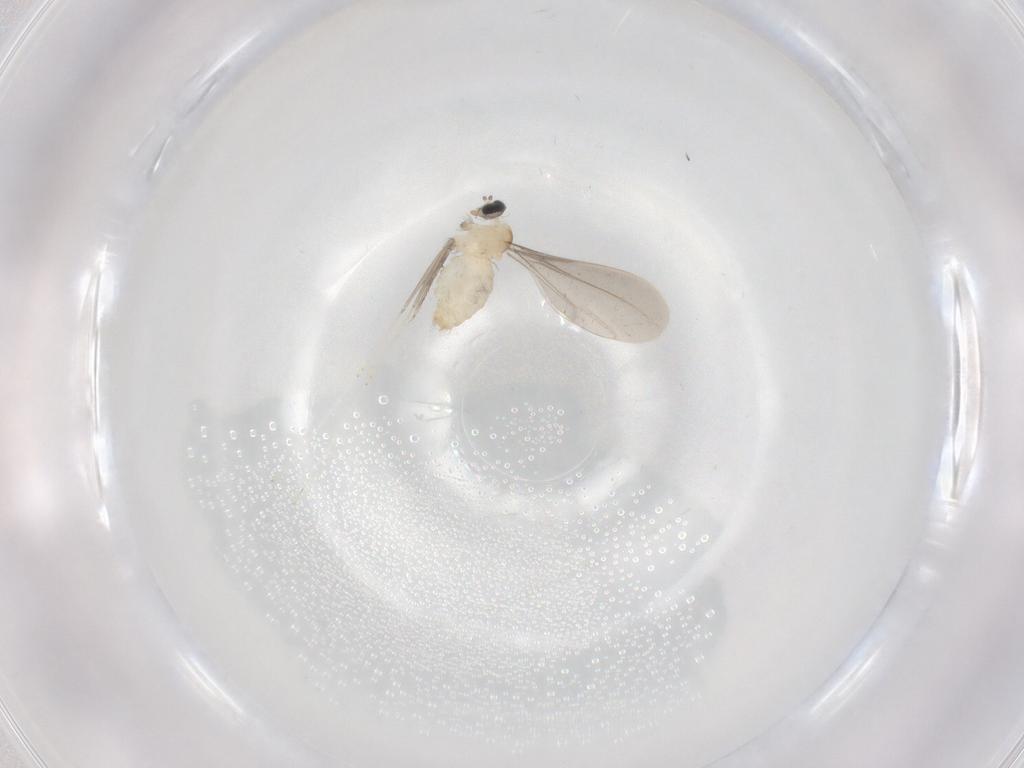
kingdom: Animalia
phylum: Arthropoda
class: Insecta
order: Diptera
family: Cecidomyiidae
